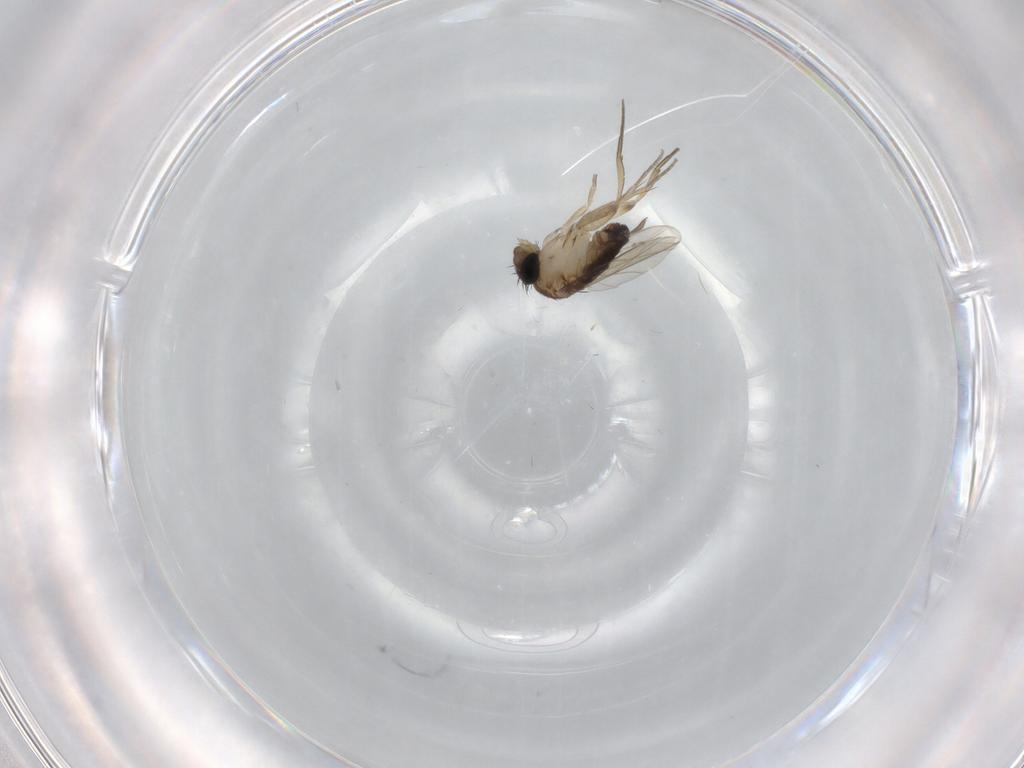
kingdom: Animalia
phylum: Arthropoda
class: Insecta
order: Diptera
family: Cecidomyiidae
